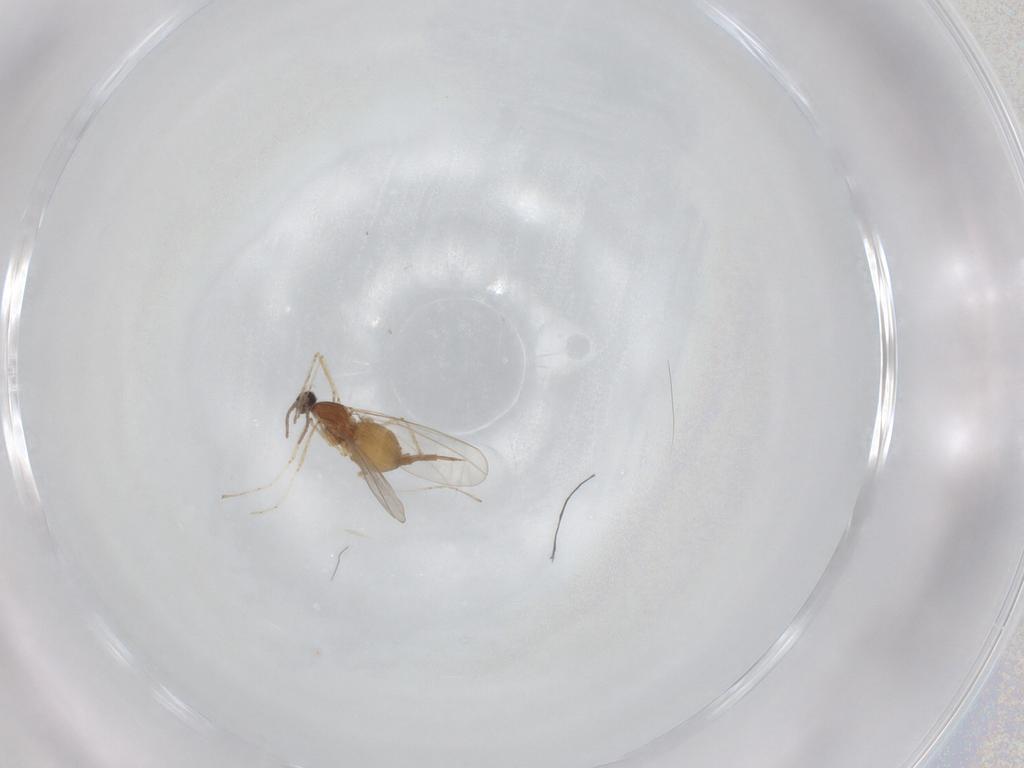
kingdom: Animalia
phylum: Arthropoda
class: Insecta
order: Diptera
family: Cecidomyiidae
